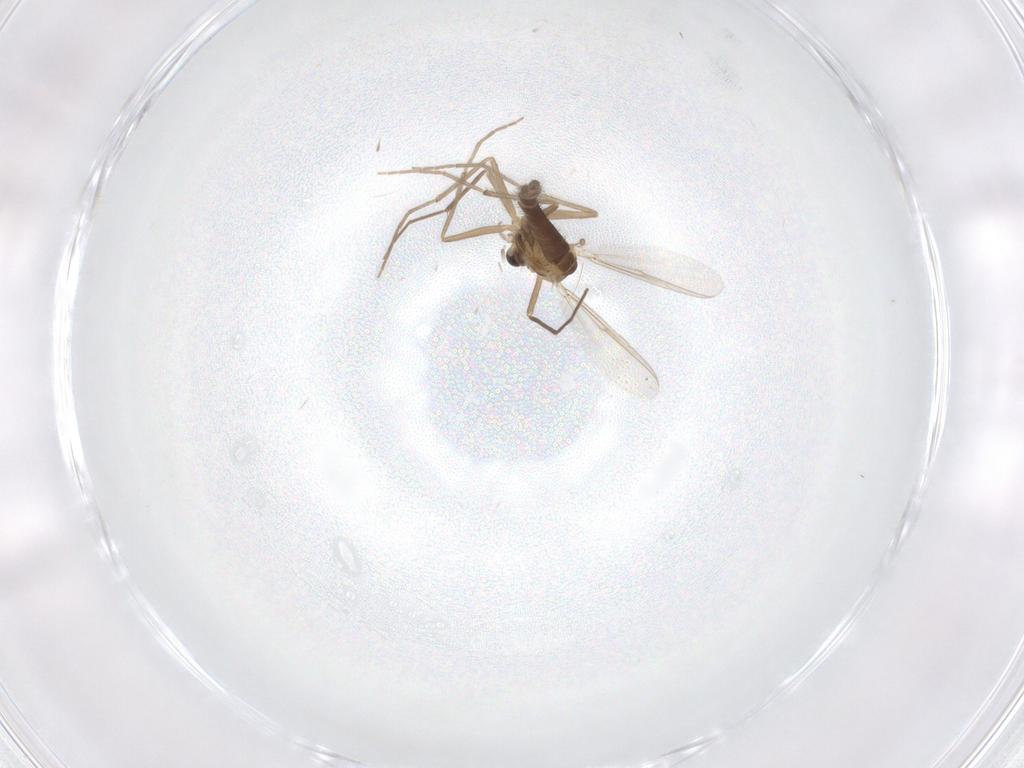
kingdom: Animalia
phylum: Arthropoda
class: Insecta
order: Diptera
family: Chironomidae
